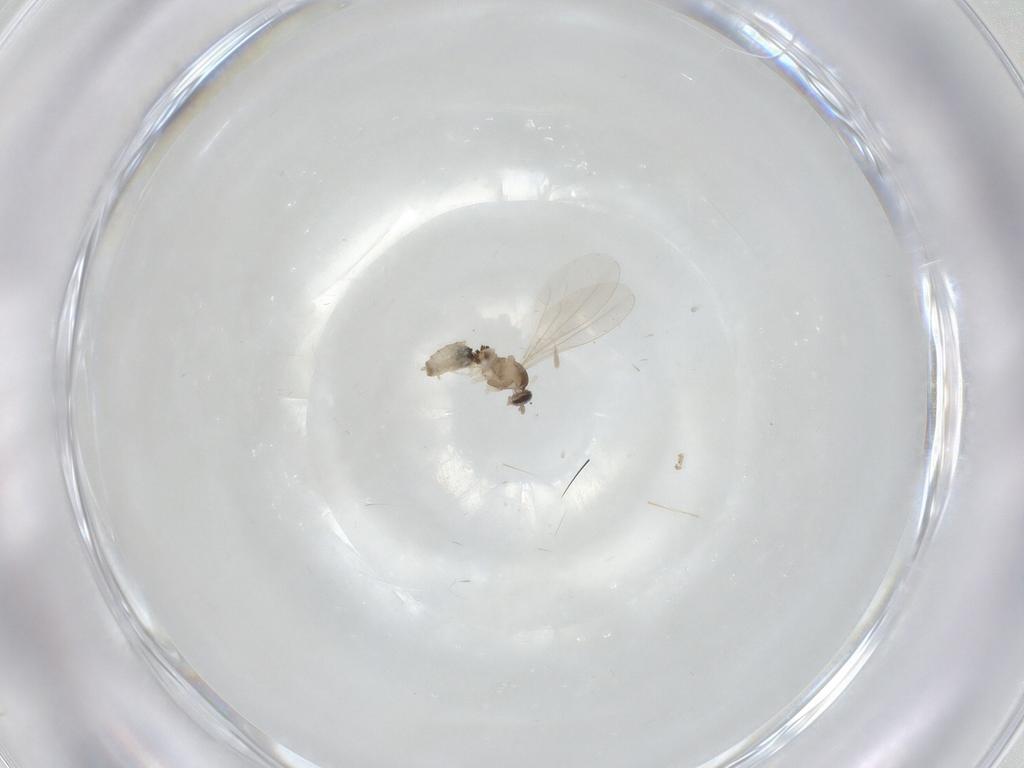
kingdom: Animalia
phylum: Arthropoda
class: Insecta
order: Diptera
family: Cecidomyiidae
